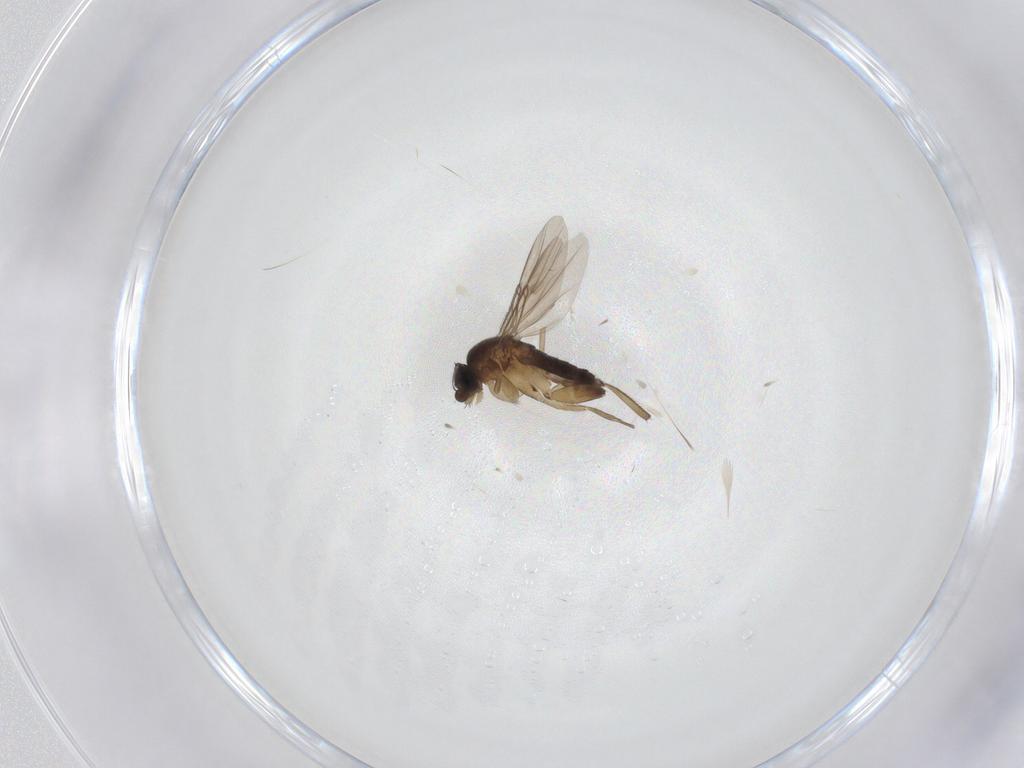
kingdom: Animalia
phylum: Arthropoda
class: Insecta
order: Diptera
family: Phoridae
